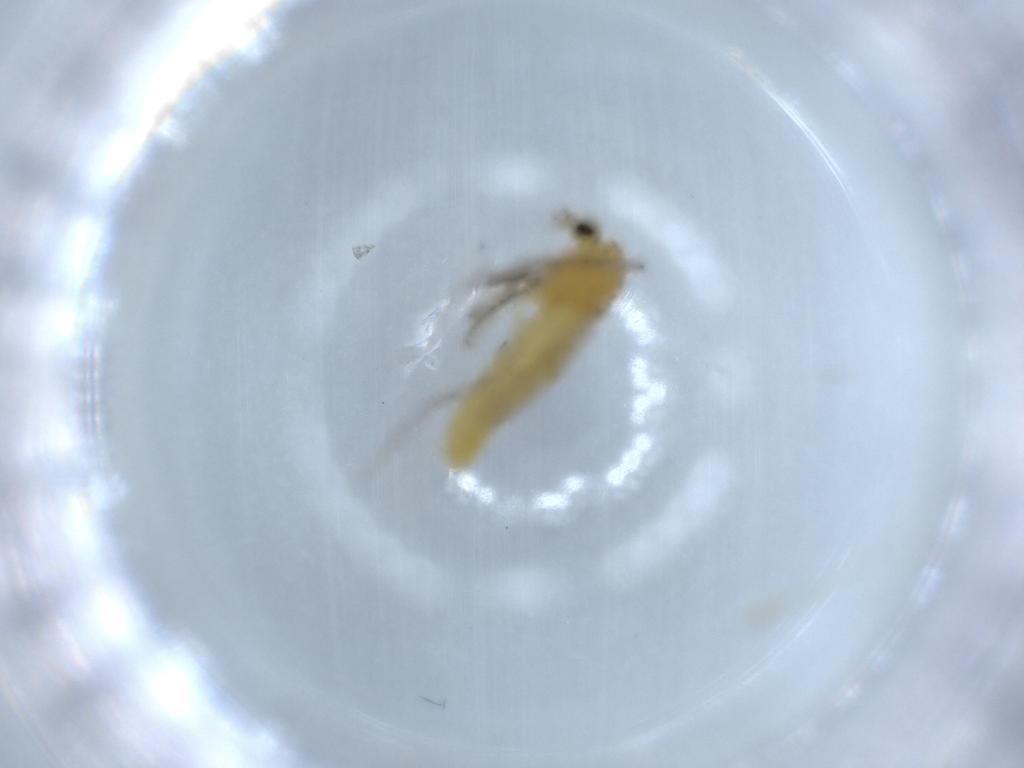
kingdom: Animalia
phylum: Arthropoda
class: Insecta
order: Diptera
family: Chironomidae
